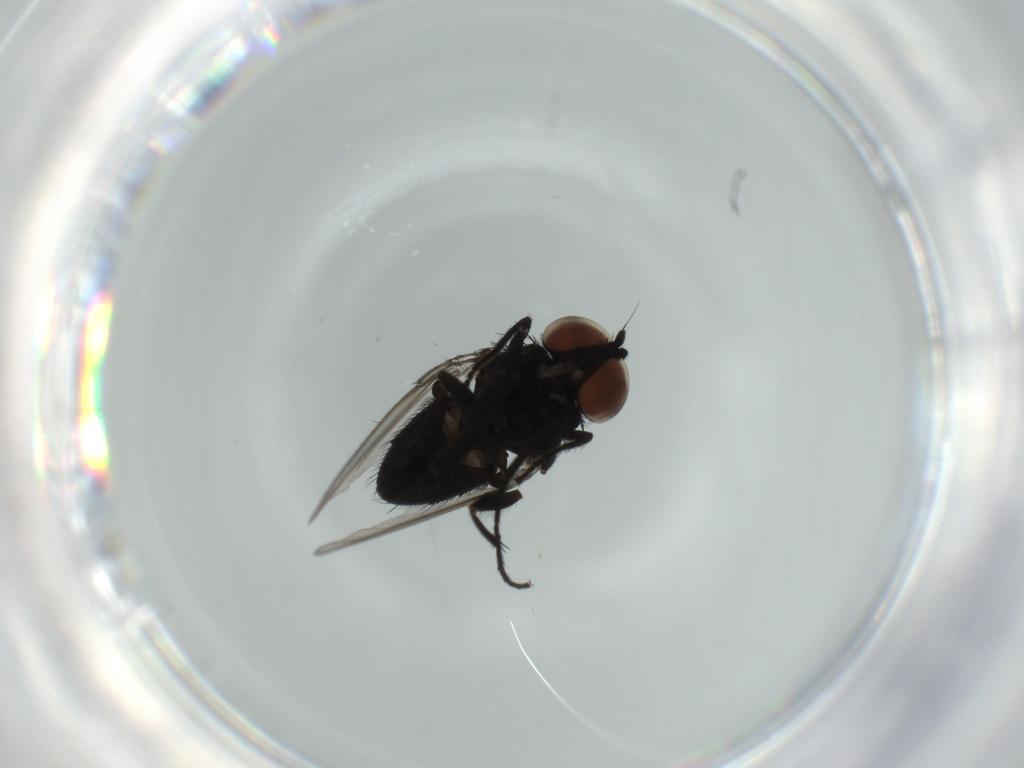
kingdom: Animalia
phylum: Arthropoda
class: Insecta
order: Diptera
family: Milichiidae
